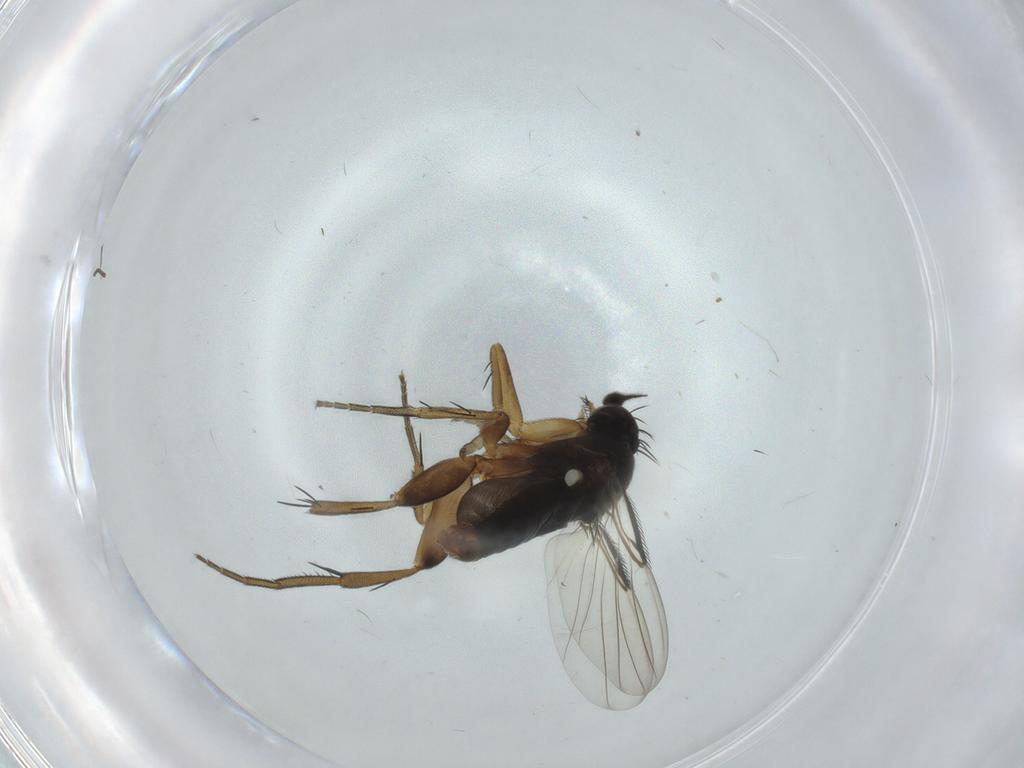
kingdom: Animalia
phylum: Arthropoda
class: Insecta
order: Diptera
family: Phoridae
